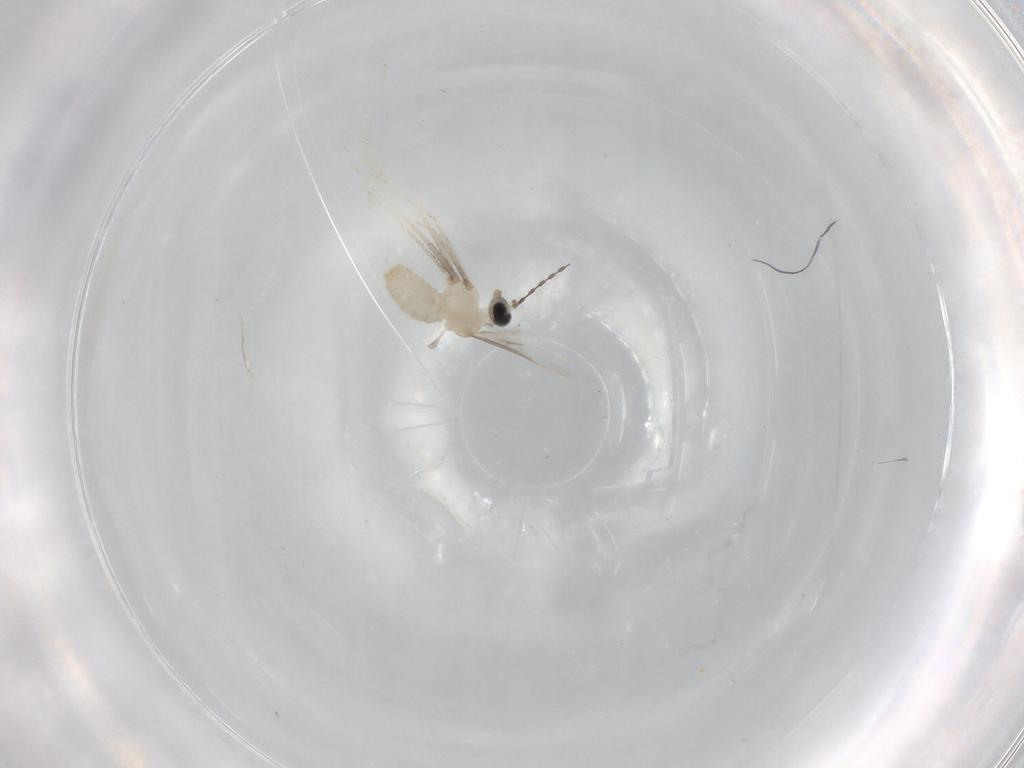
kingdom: Animalia
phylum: Arthropoda
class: Insecta
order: Diptera
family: Cecidomyiidae
